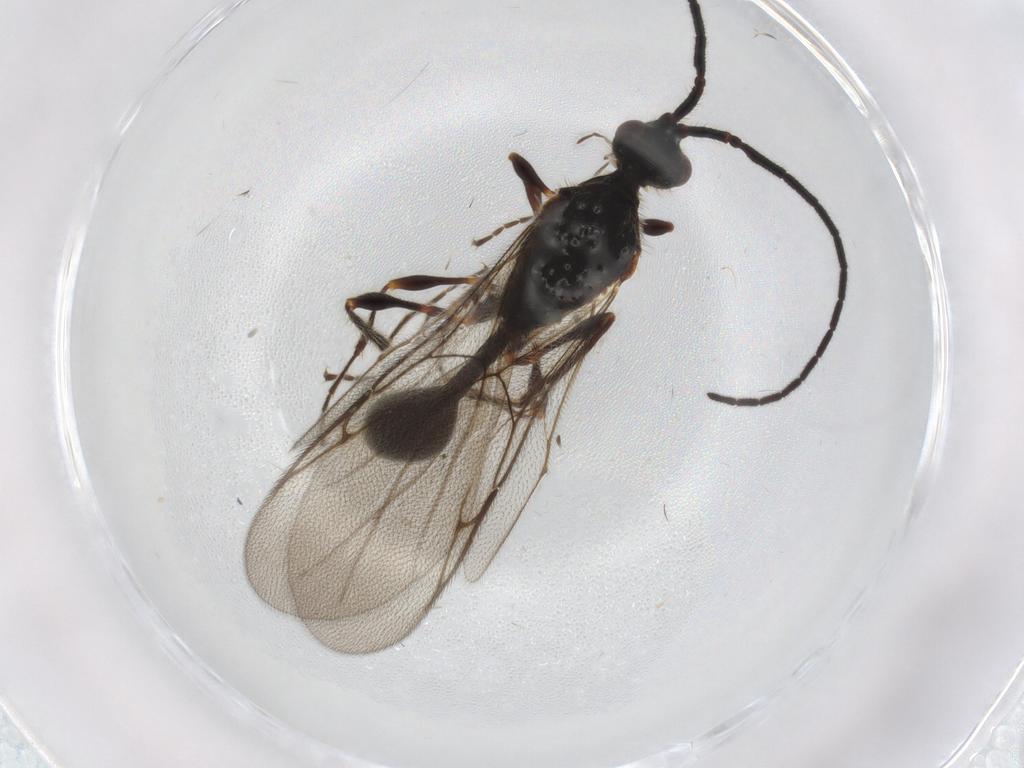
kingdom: Animalia
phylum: Arthropoda
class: Insecta
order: Hymenoptera
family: Diapriidae
